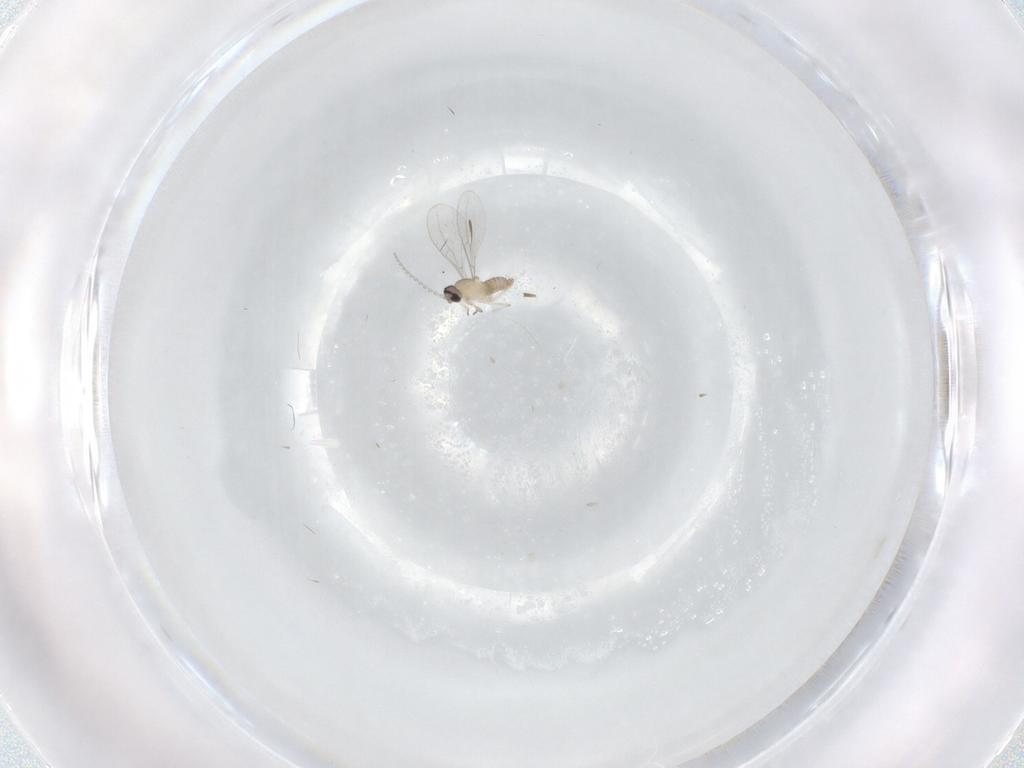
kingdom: Animalia
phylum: Arthropoda
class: Insecta
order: Diptera
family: Cecidomyiidae
